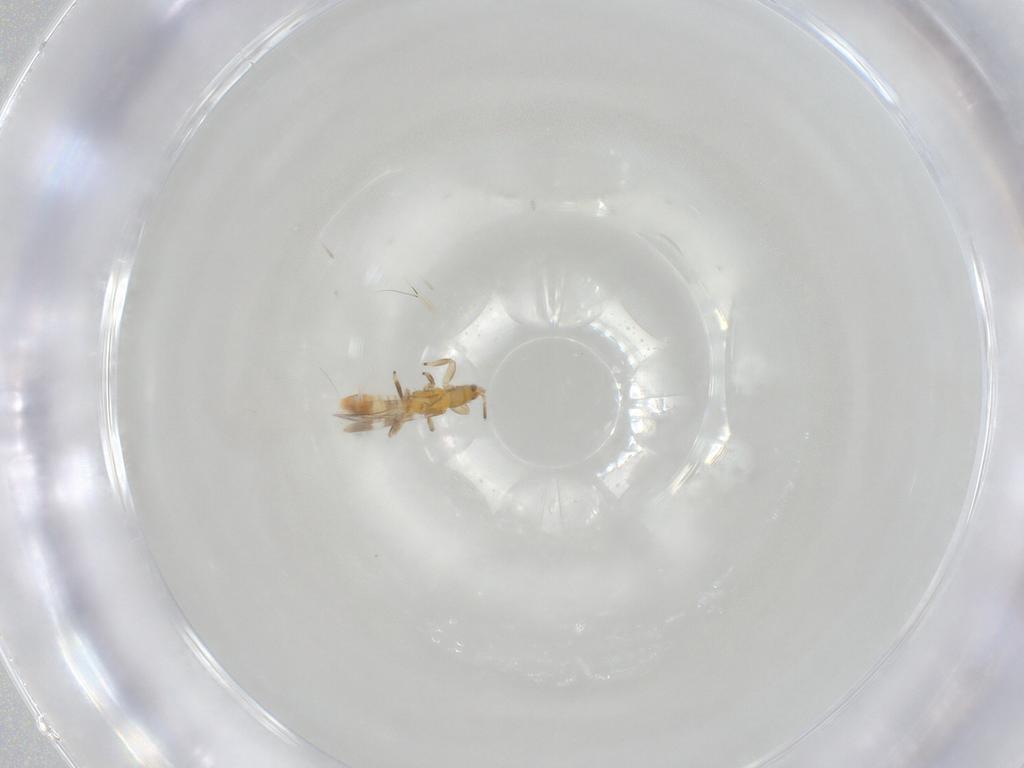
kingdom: Animalia
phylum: Arthropoda
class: Insecta
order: Thysanoptera
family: Aeolothripidae
